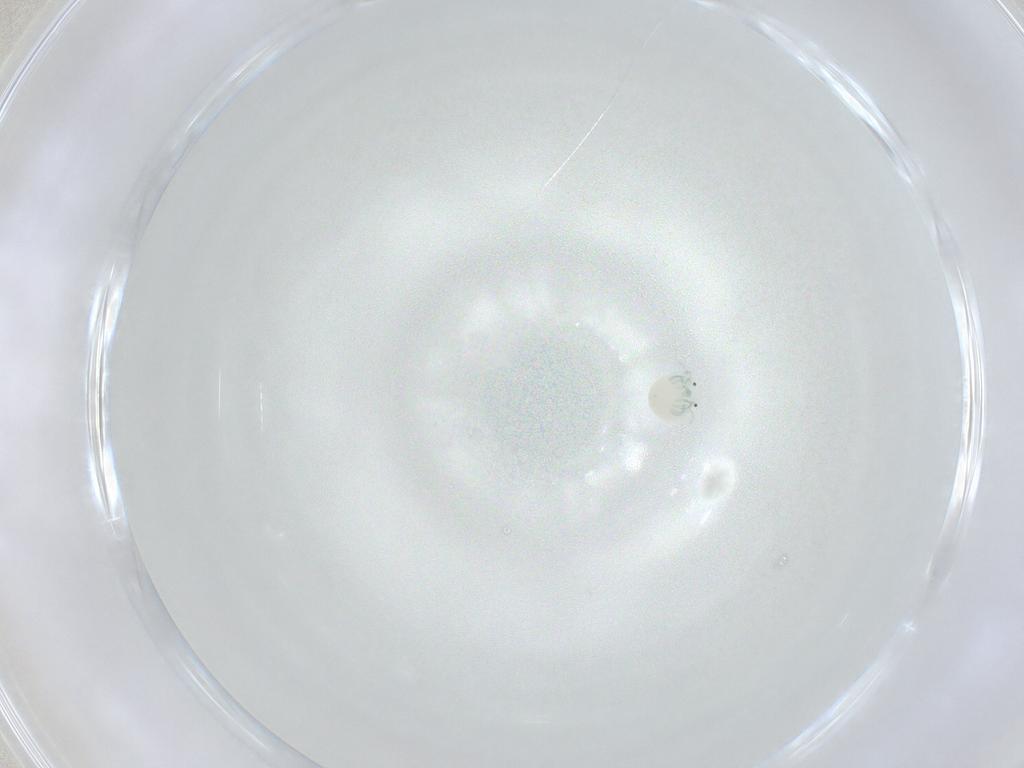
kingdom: Animalia
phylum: Arthropoda
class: Arachnida
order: Trombidiformes
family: Arrenuridae
